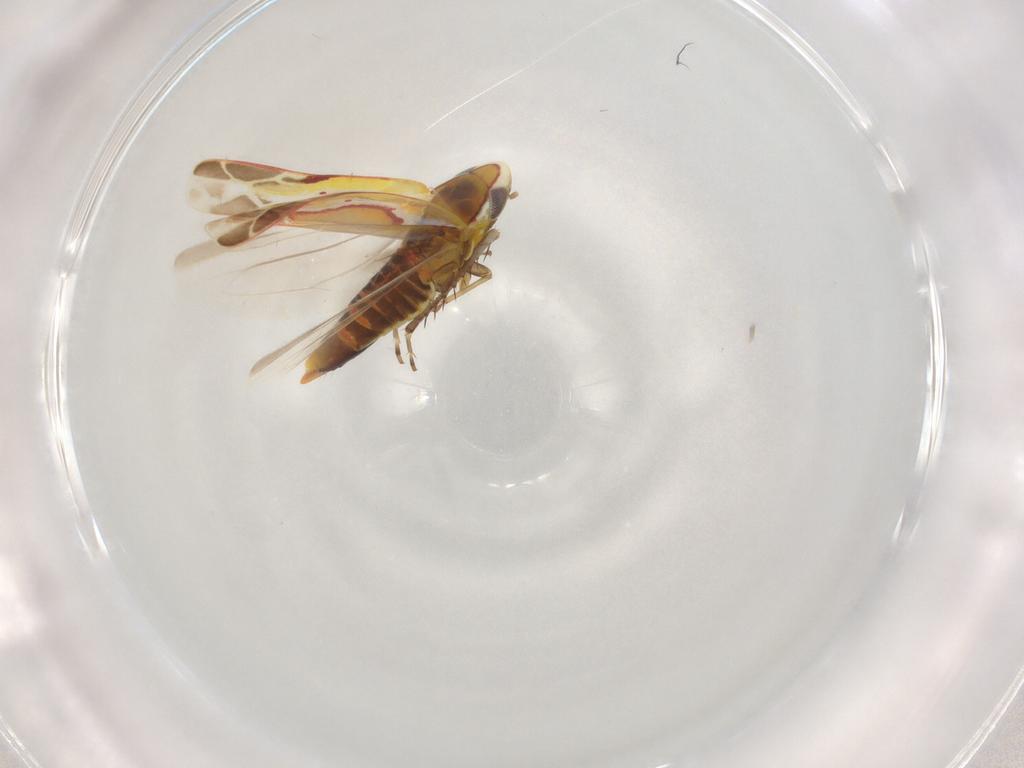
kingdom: Animalia
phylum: Arthropoda
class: Insecta
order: Hemiptera
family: Cicadellidae
